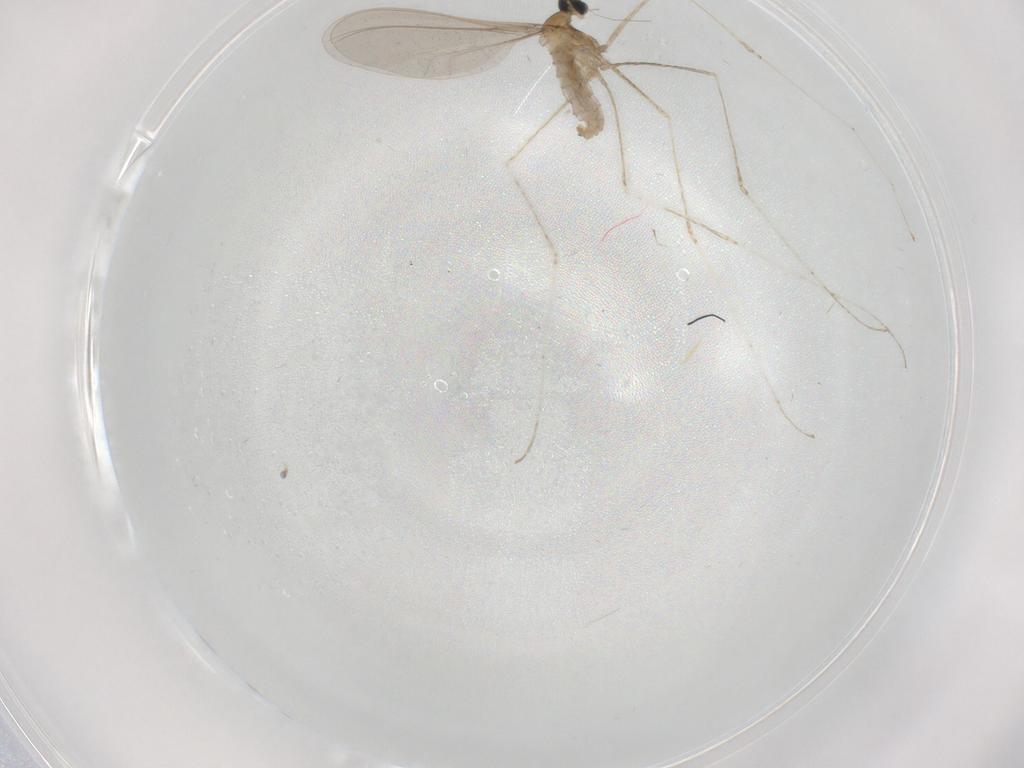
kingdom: Animalia
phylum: Arthropoda
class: Insecta
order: Diptera
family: Cecidomyiidae
